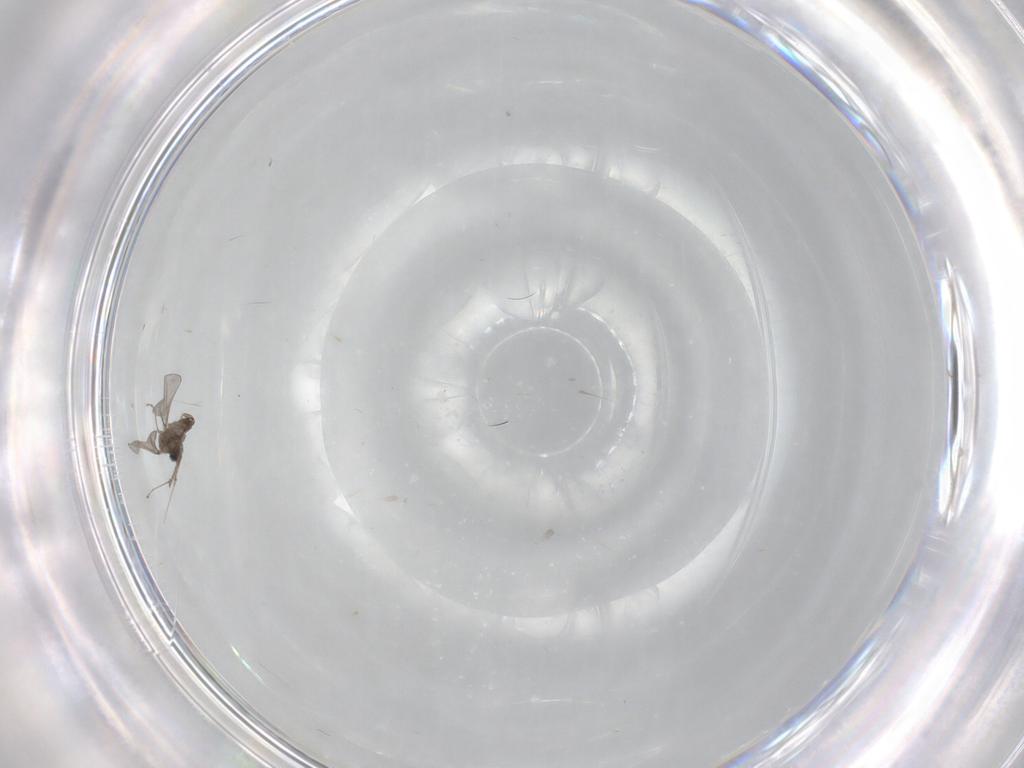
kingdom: Animalia
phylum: Arthropoda
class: Insecta
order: Diptera
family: Cecidomyiidae
